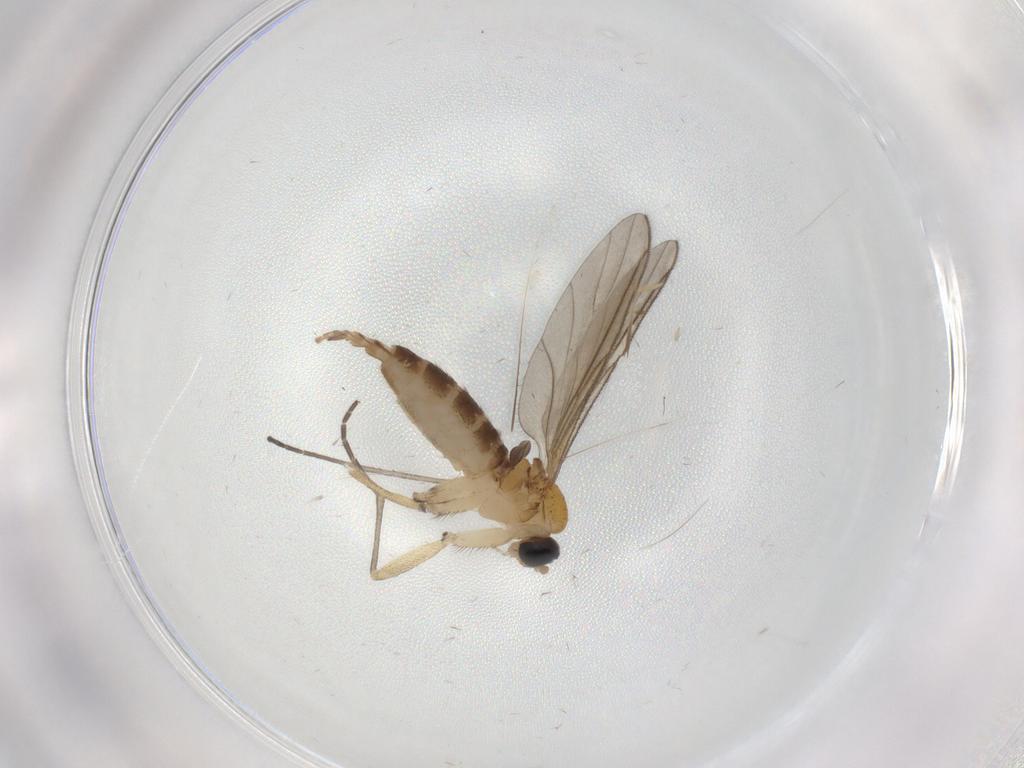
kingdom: Animalia
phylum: Arthropoda
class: Insecta
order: Diptera
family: Sciaridae
